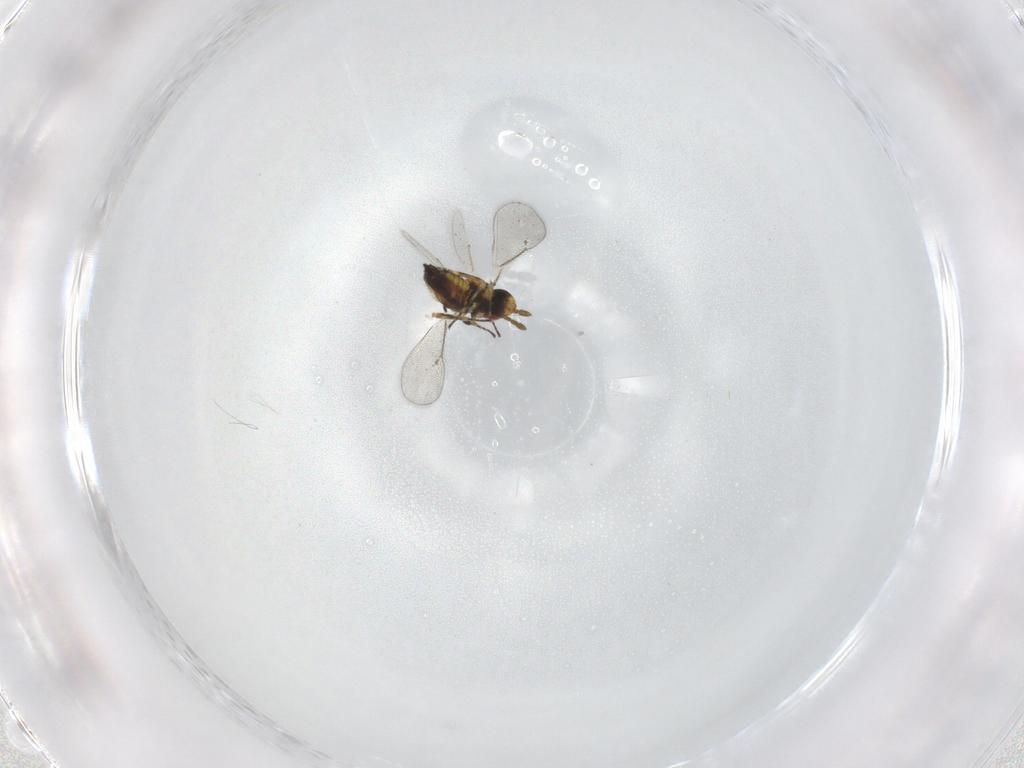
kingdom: Animalia
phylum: Arthropoda
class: Insecta
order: Hymenoptera
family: Eulophidae
